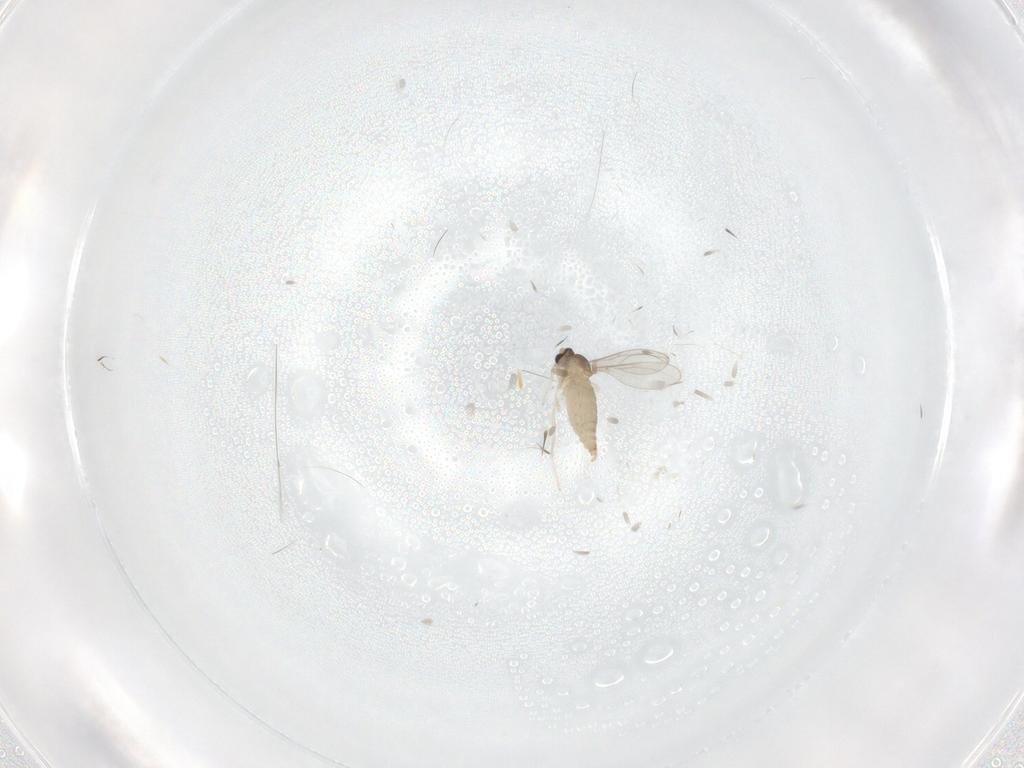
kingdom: Animalia
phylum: Arthropoda
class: Insecta
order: Diptera
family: Cecidomyiidae
